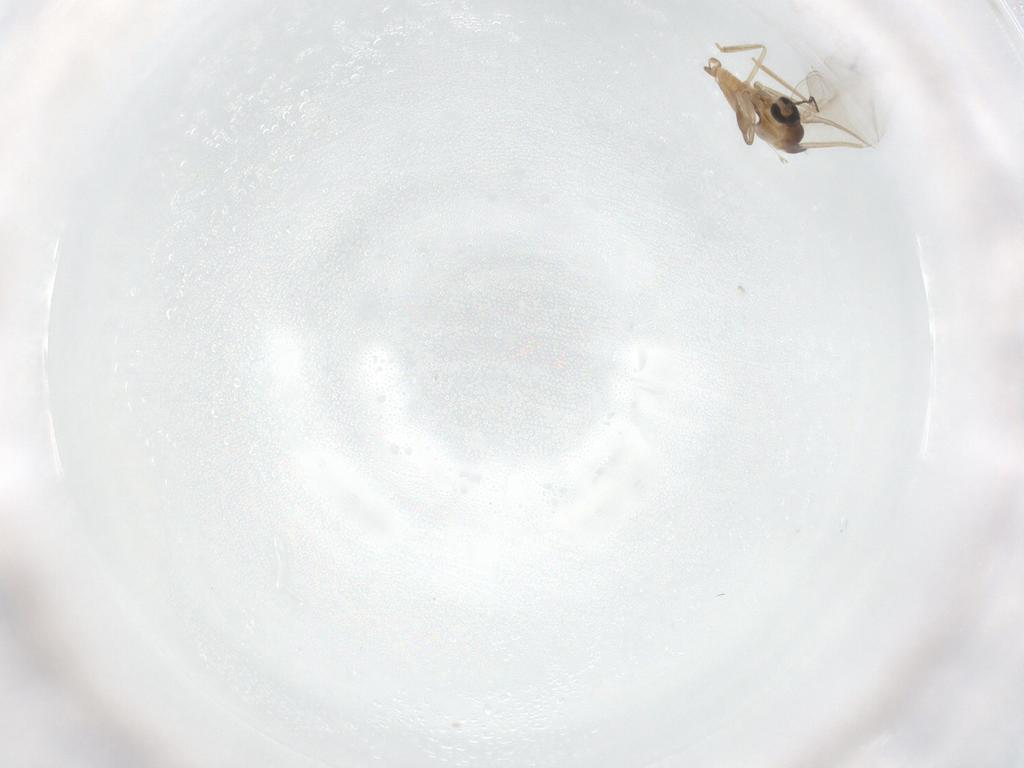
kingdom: Animalia
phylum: Arthropoda
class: Insecta
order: Diptera
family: Cecidomyiidae
